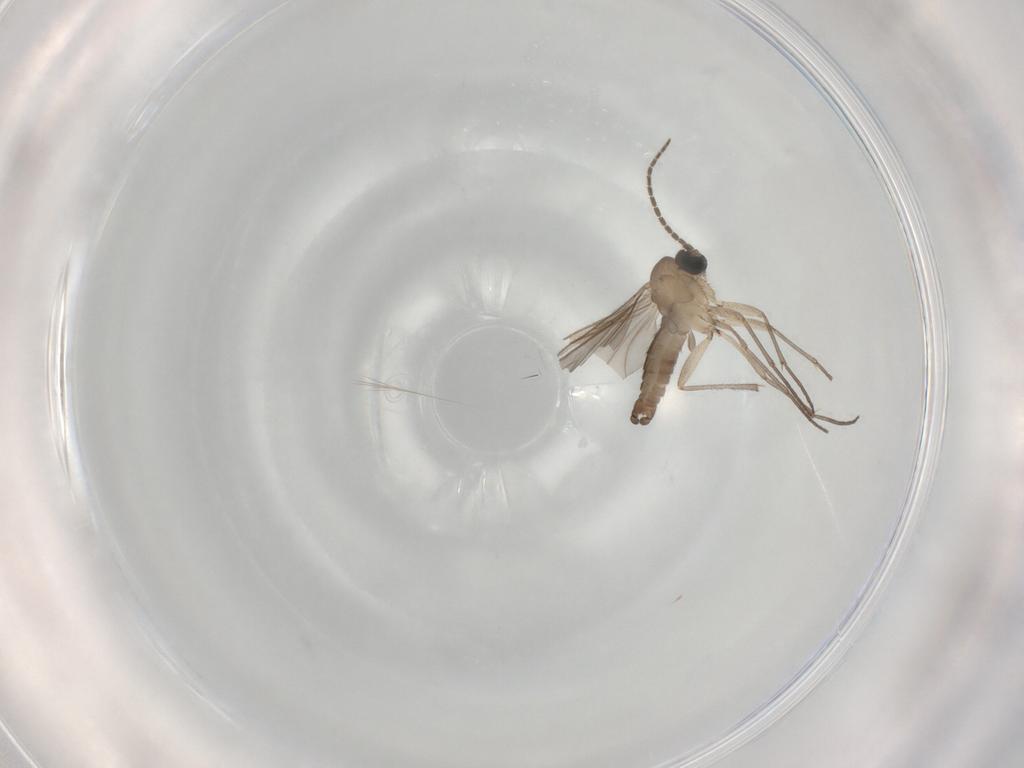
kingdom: Animalia
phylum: Arthropoda
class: Insecta
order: Diptera
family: Sciaridae
